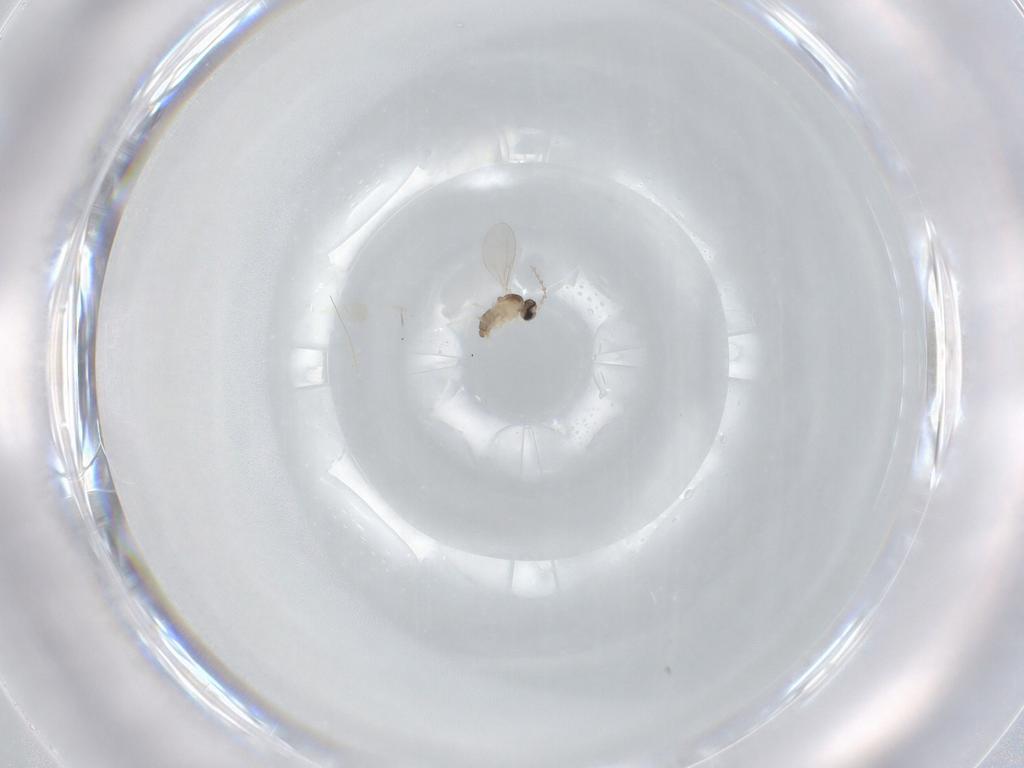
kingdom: Animalia
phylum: Arthropoda
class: Insecta
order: Diptera
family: Cecidomyiidae
